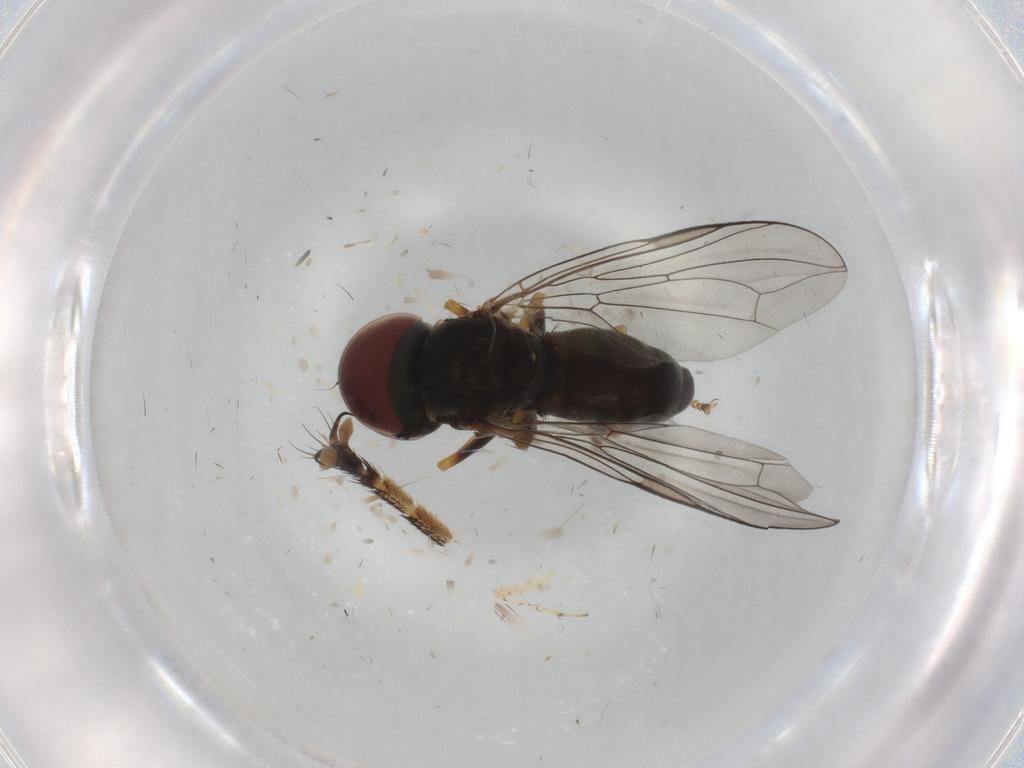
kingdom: Animalia
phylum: Arthropoda
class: Insecta
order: Diptera
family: Pipunculidae
